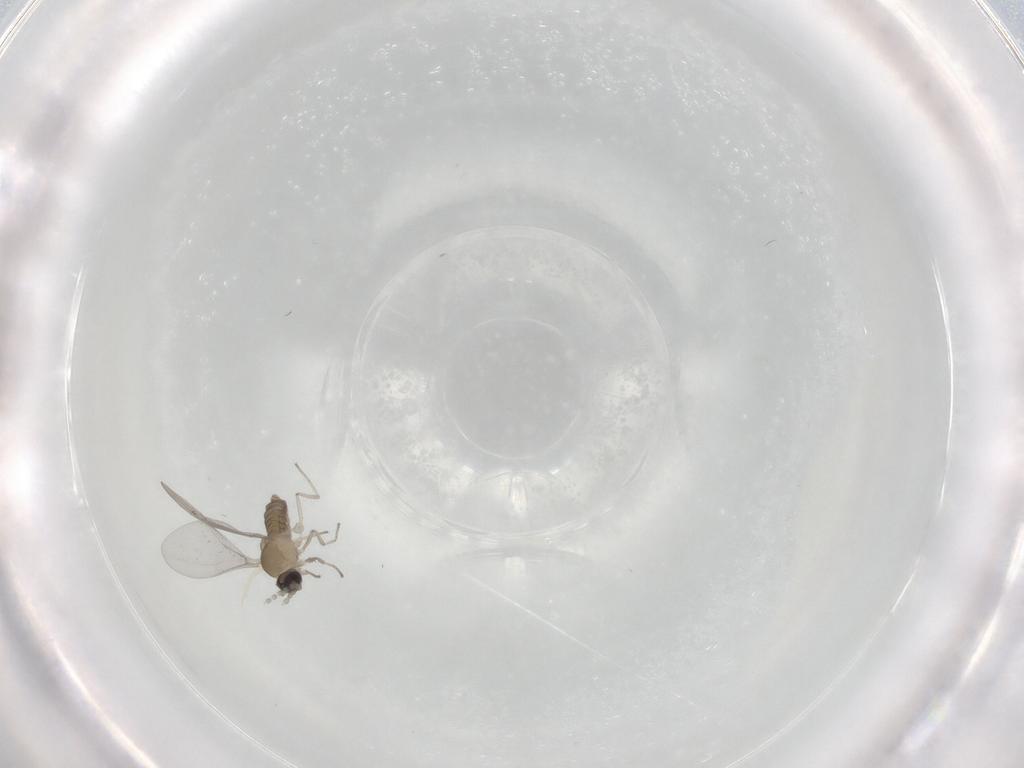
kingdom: Animalia
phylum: Arthropoda
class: Insecta
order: Diptera
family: Cecidomyiidae
